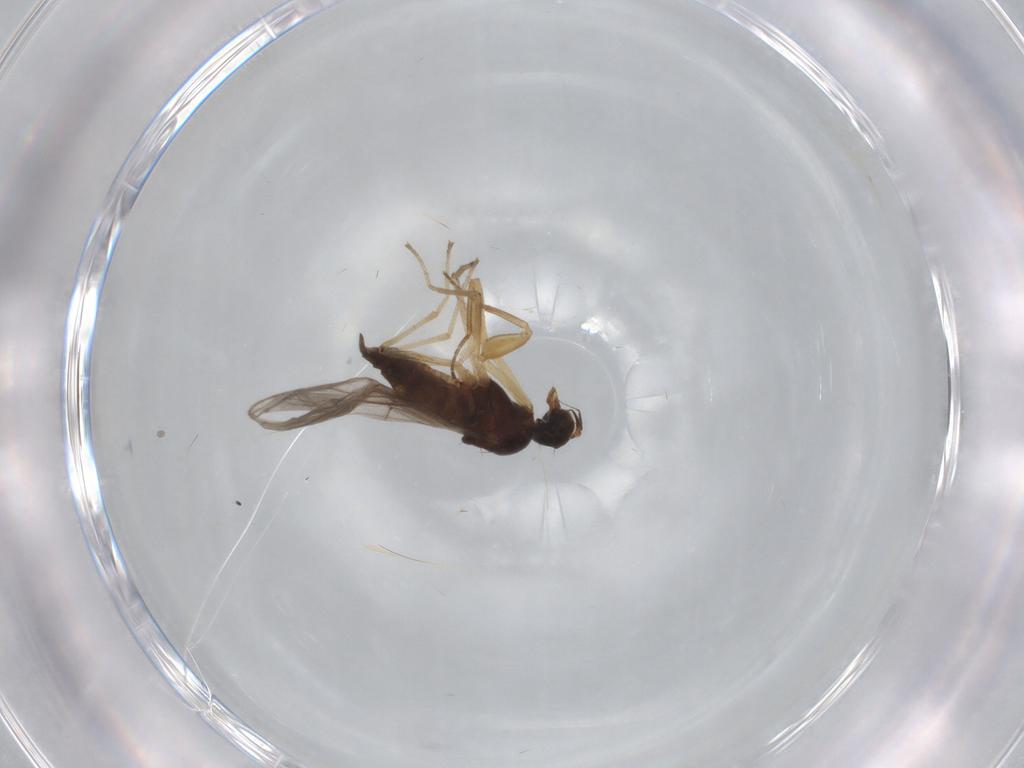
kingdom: Animalia
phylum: Arthropoda
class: Insecta
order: Diptera
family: Empididae
